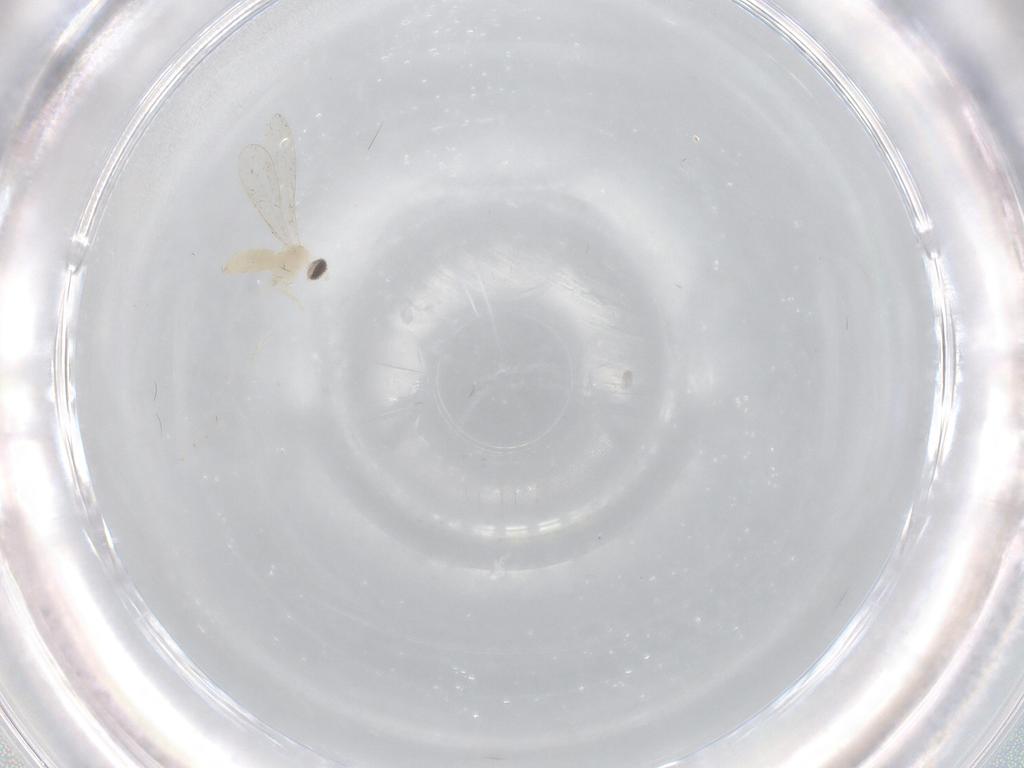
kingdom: Animalia
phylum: Arthropoda
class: Insecta
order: Diptera
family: Cecidomyiidae
